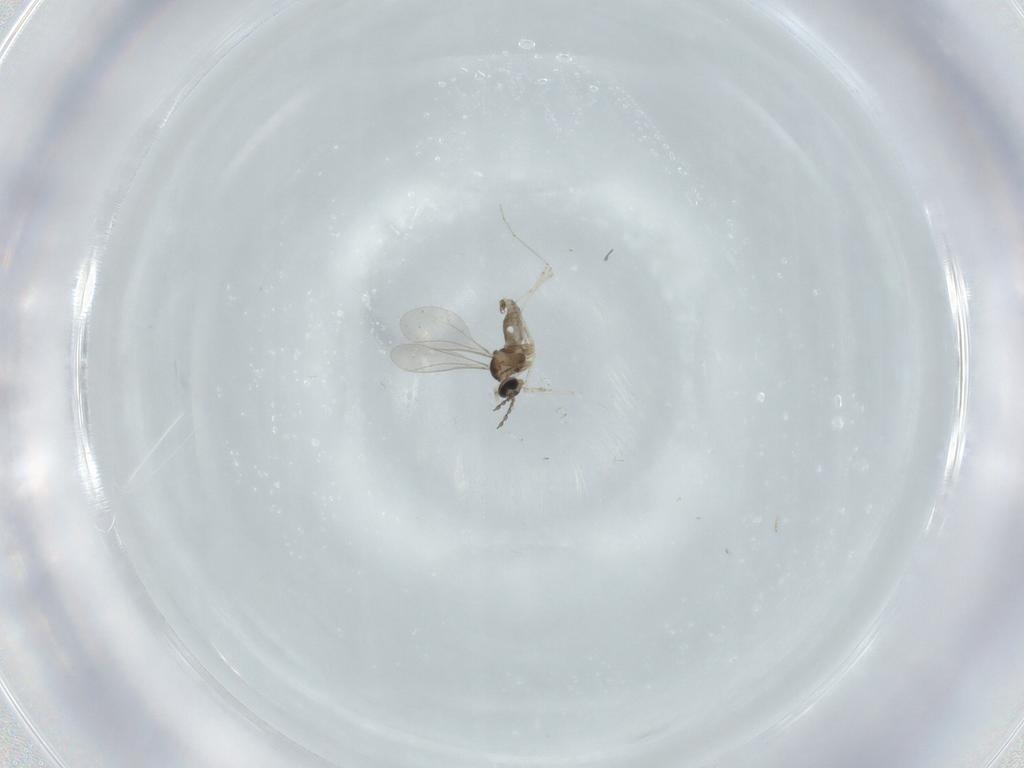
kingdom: Animalia
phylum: Arthropoda
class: Insecta
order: Diptera
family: Cecidomyiidae
